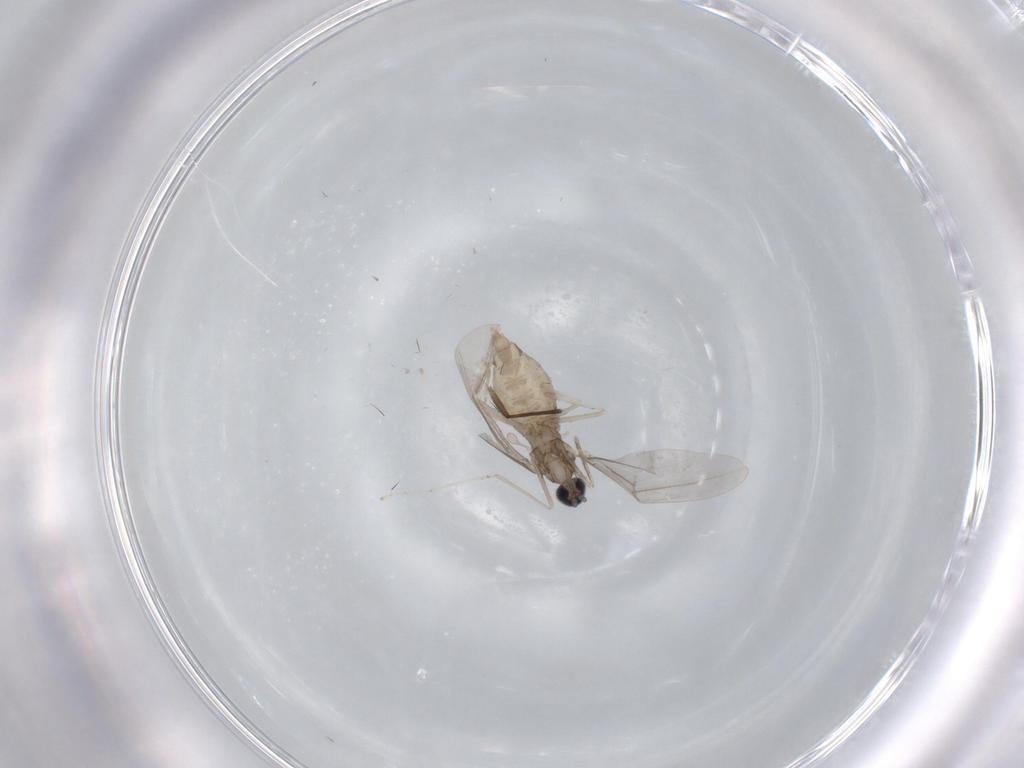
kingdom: Animalia
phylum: Arthropoda
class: Insecta
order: Diptera
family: Cecidomyiidae
